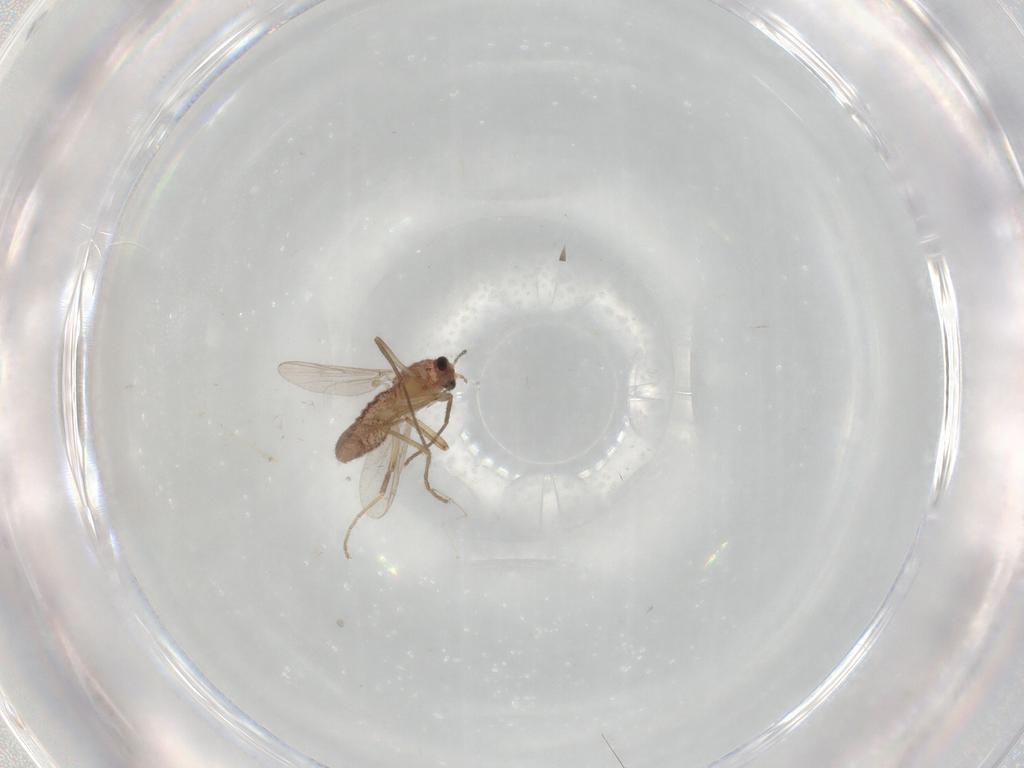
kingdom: Animalia
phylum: Arthropoda
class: Insecta
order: Diptera
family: Chironomidae
